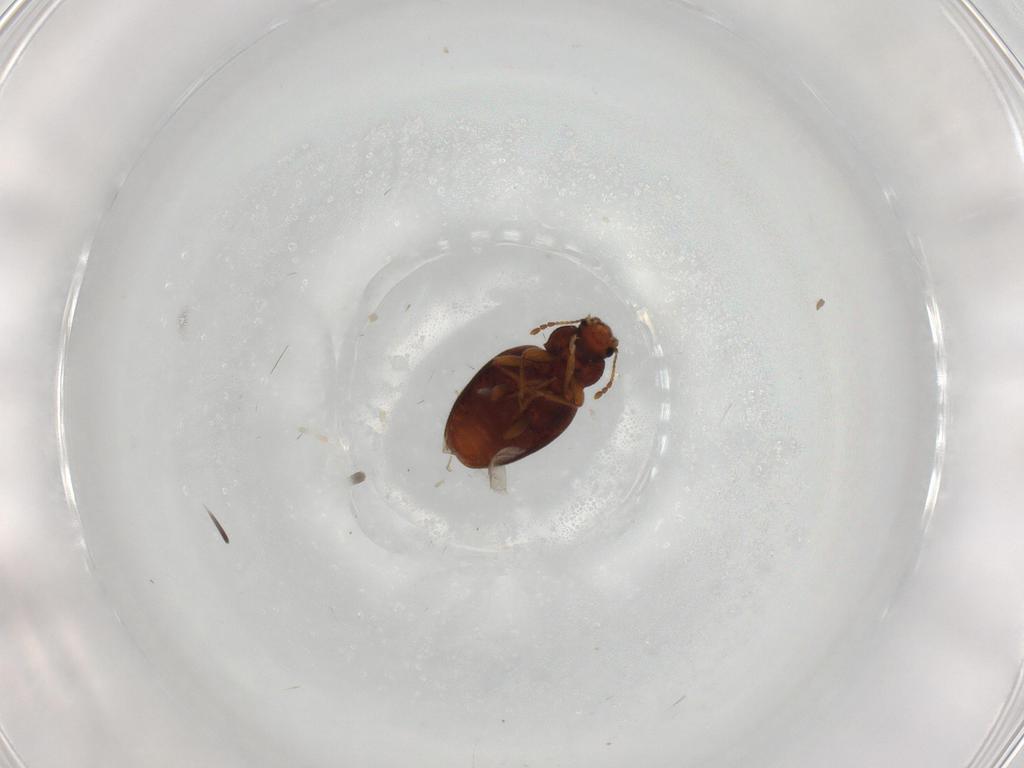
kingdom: Animalia
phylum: Arthropoda
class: Insecta
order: Coleoptera
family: Latridiidae
